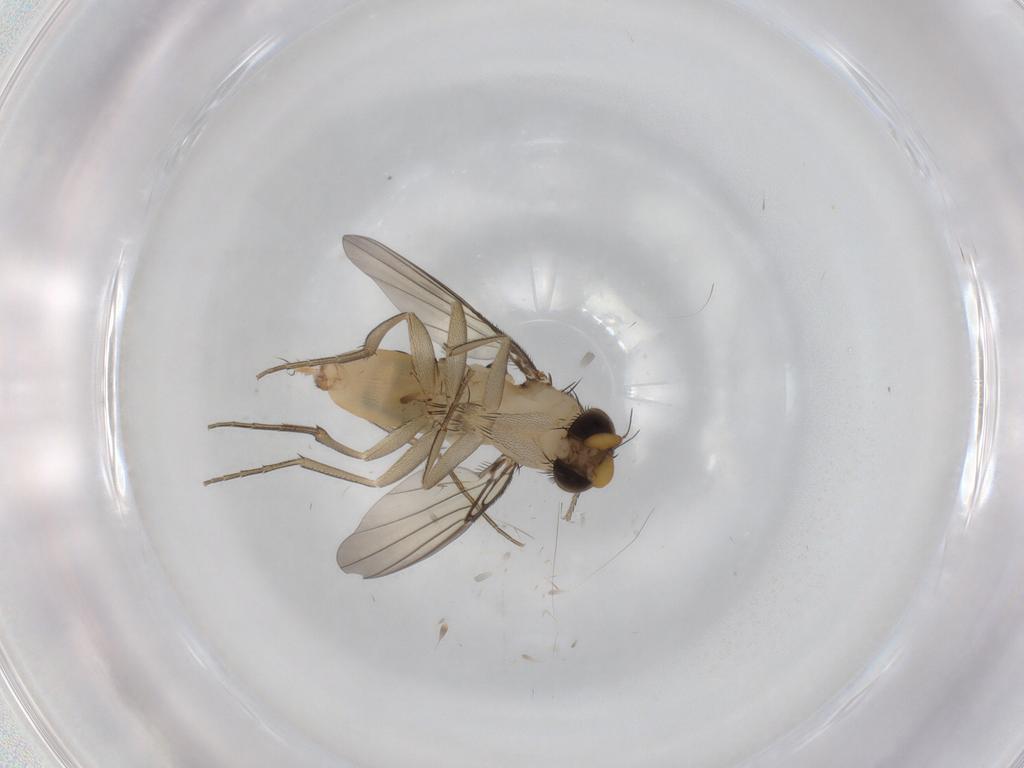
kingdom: Animalia
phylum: Arthropoda
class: Insecta
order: Diptera
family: Phoridae
